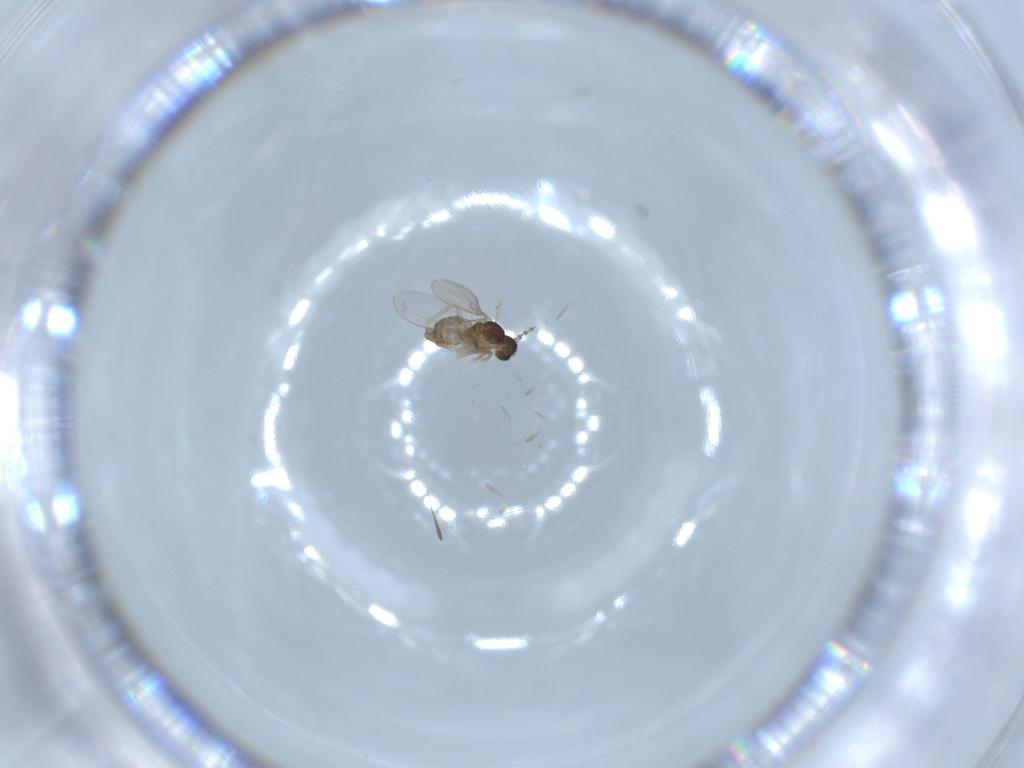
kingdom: Animalia
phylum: Arthropoda
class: Insecta
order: Diptera
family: Cecidomyiidae
